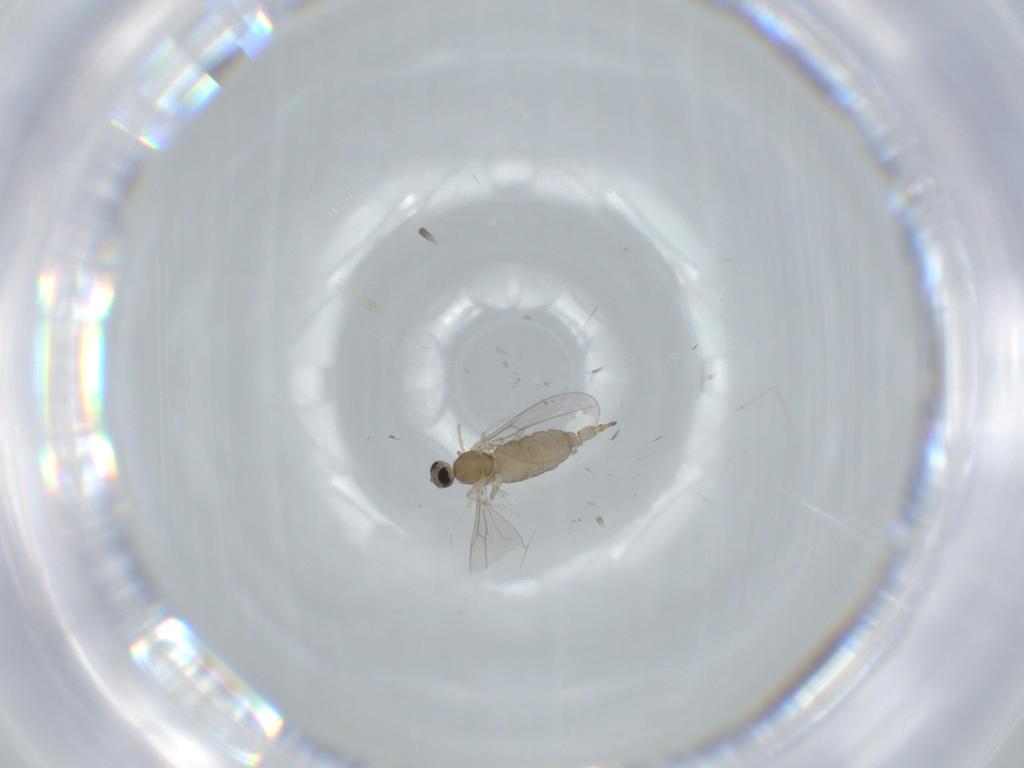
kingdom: Animalia
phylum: Arthropoda
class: Insecta
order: Diptera
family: Cecidomyiidae
